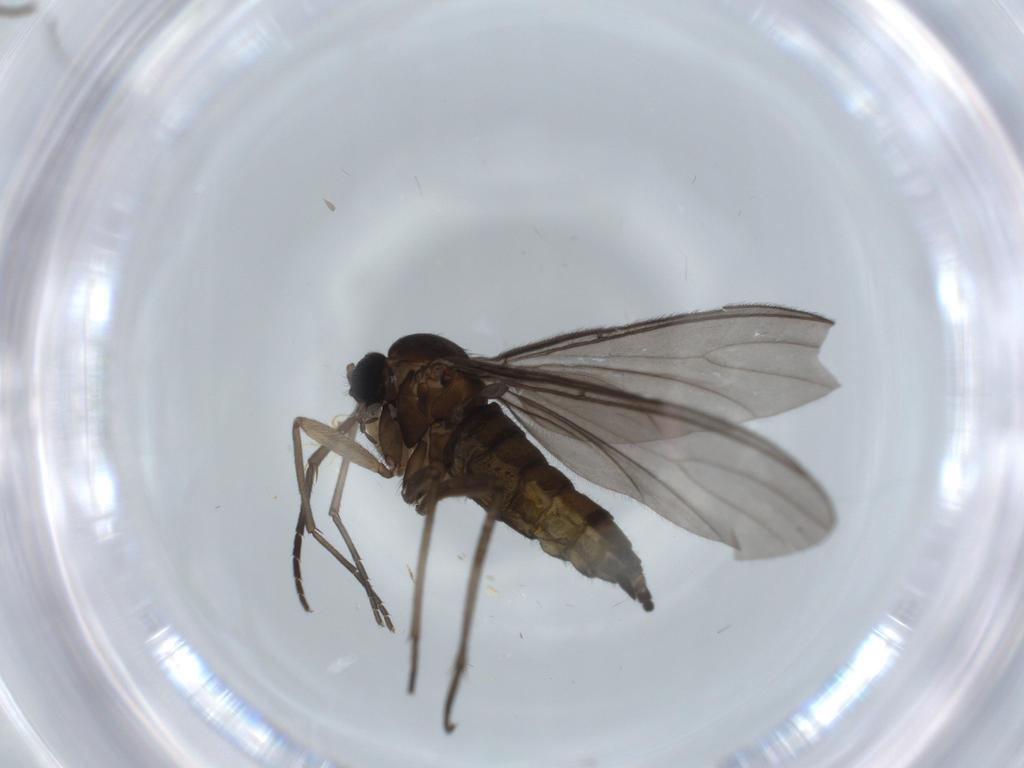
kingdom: Animalia
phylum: Arthropoda
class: Insecta
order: Diptera
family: Sciaridae
